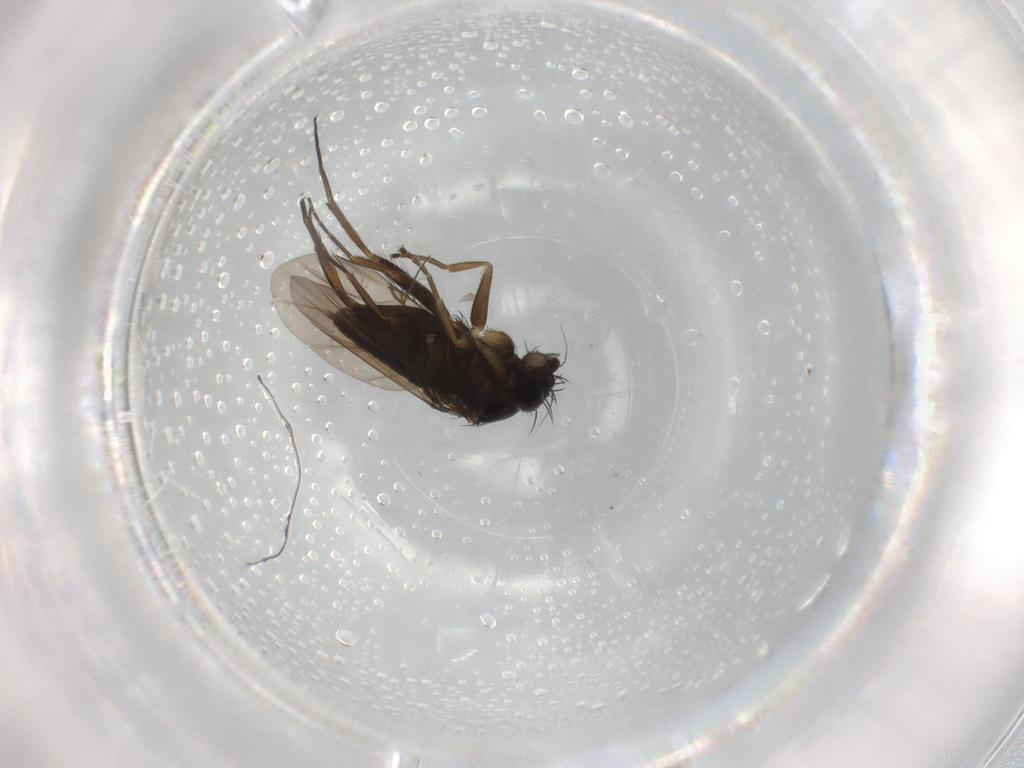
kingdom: Animalia
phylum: Arthropoda
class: Insecta
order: Diptera
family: Phoridae
